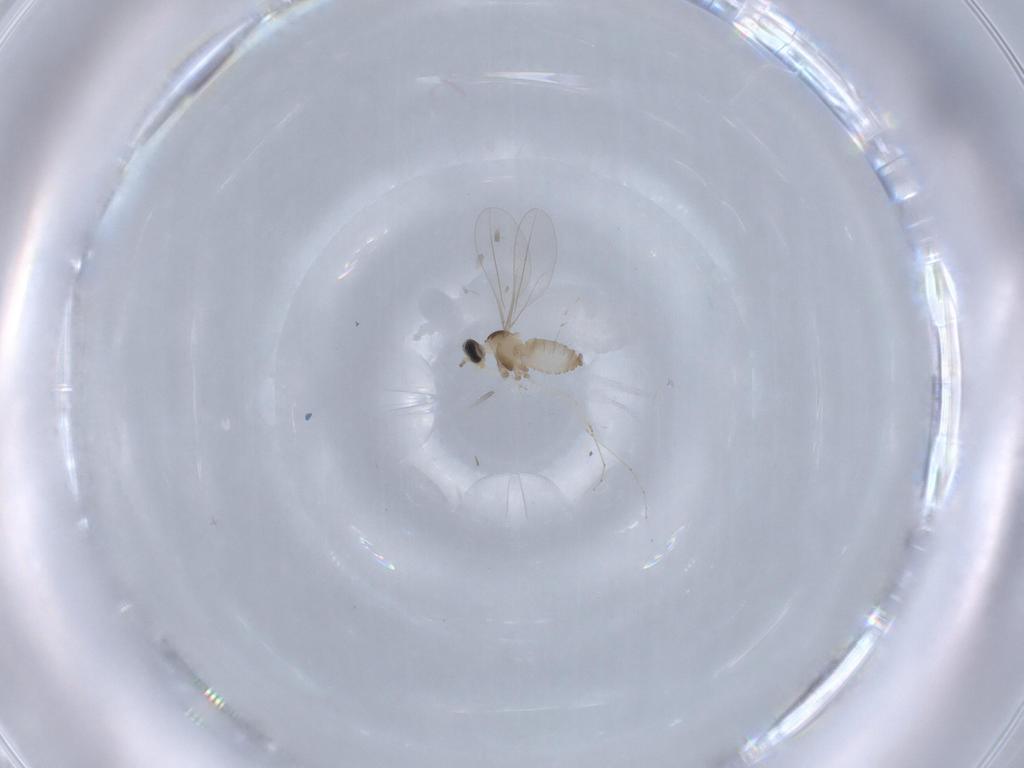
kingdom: Animalia
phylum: Arthropoda
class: Insecta
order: Diptera
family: Cecidomyiidae
